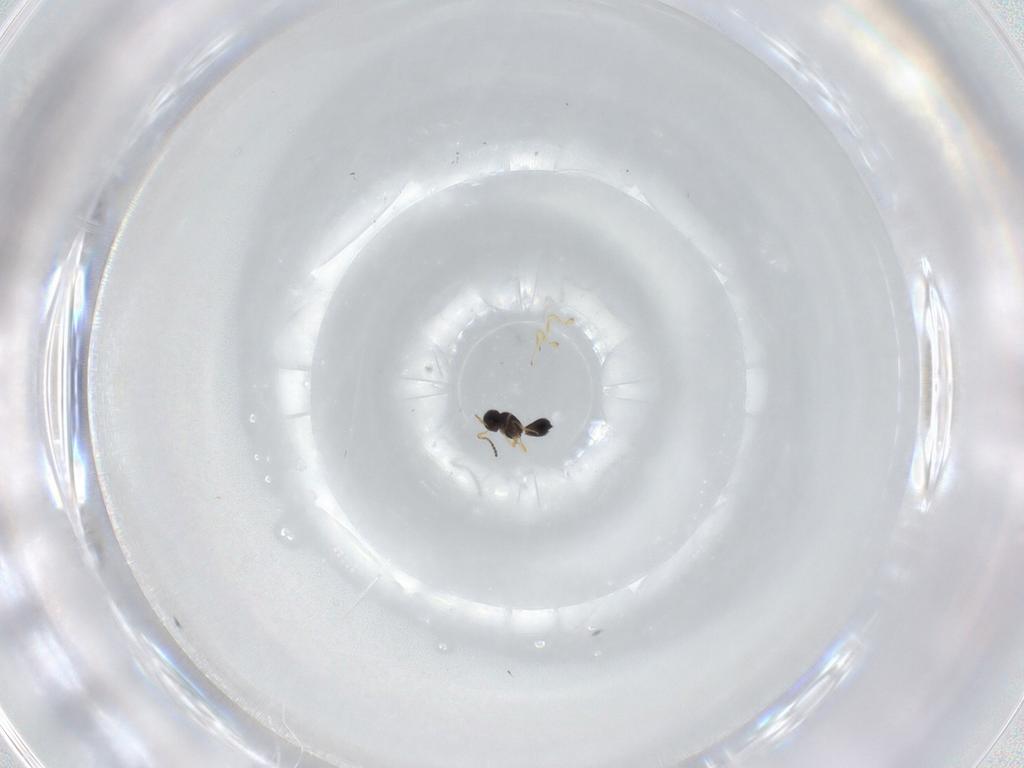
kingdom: Animalia
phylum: Arthropoda
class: Insecta
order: Hymenoptera
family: Scelionidae
